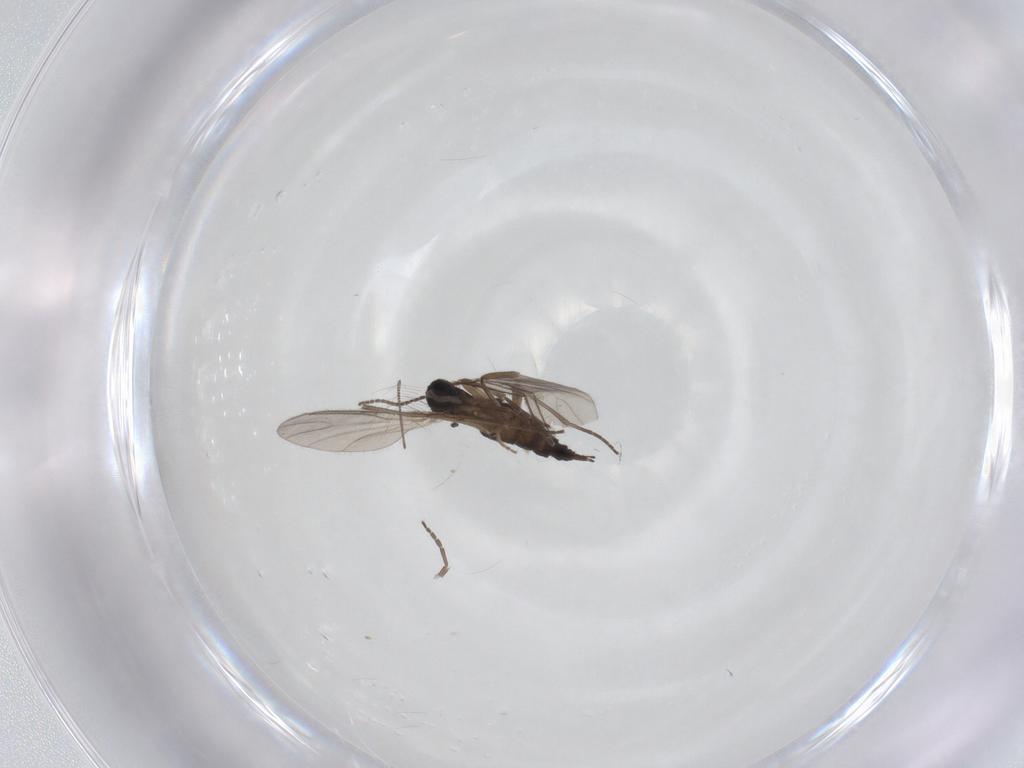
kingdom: Animalia
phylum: Arthropoda
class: Insecta
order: Diptera
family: Sciaridae
